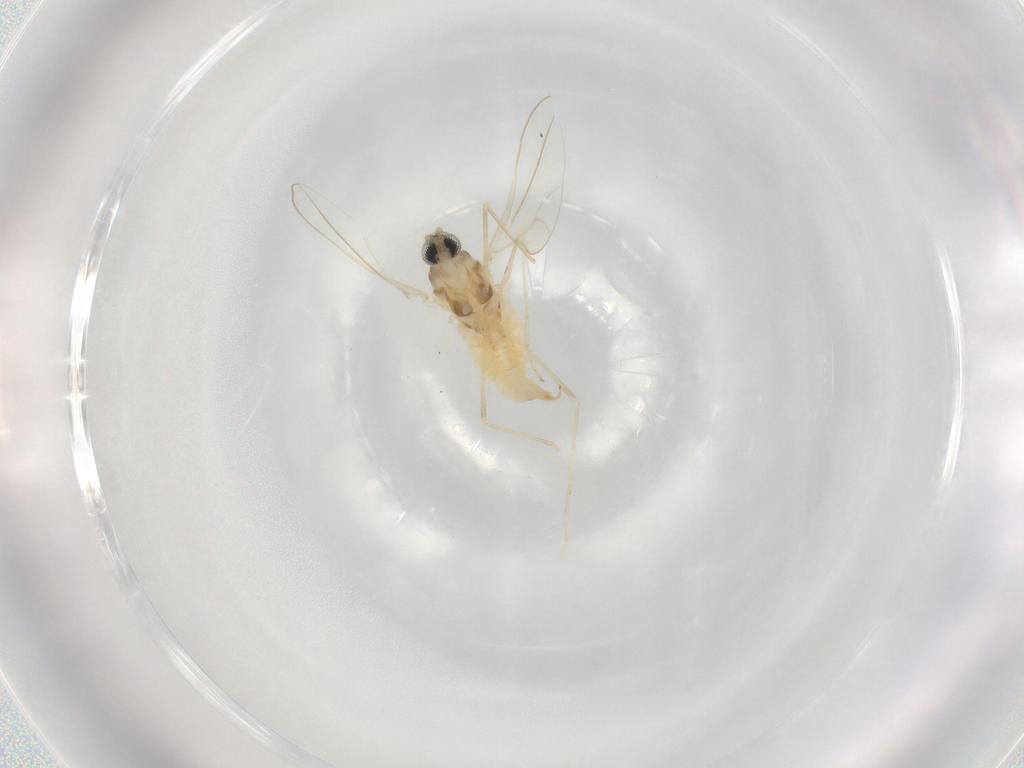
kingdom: Animalia
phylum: Arthropoda
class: Insecta
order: Diptera
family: Cecidomyiidae
